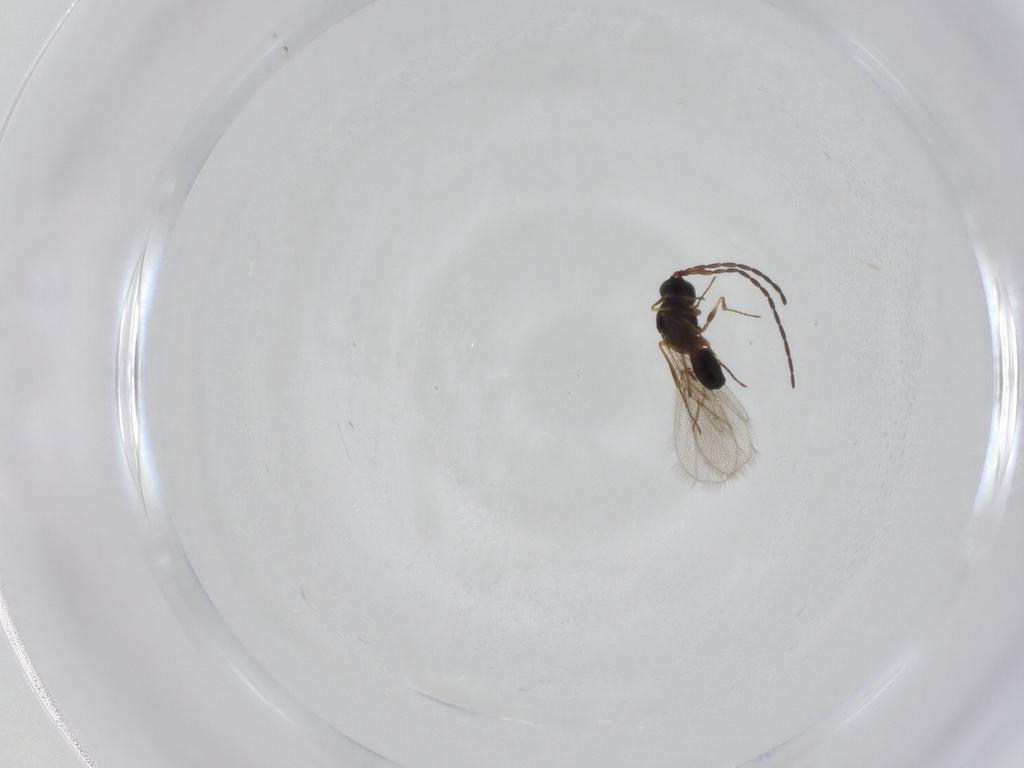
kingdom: Animalia
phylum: Arthropoda
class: Insecta
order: Hymenoptera
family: Figitidae
